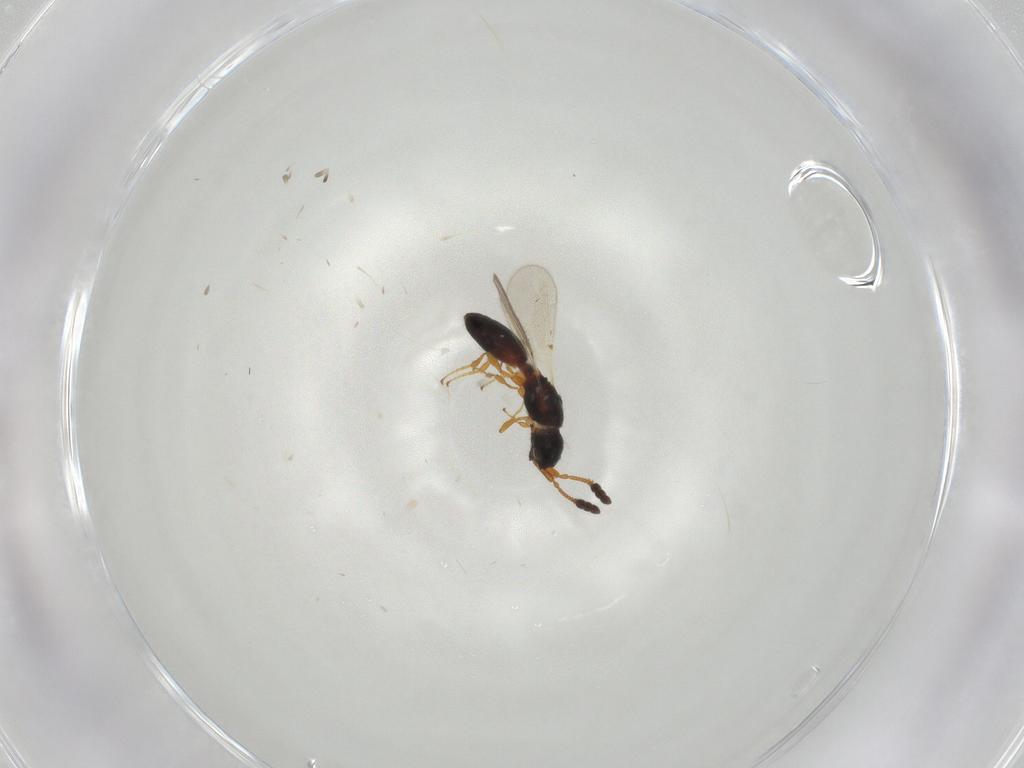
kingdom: Animalia
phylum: Arthropoda
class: Insecta
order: Hymenoptera
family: Diapriidae
